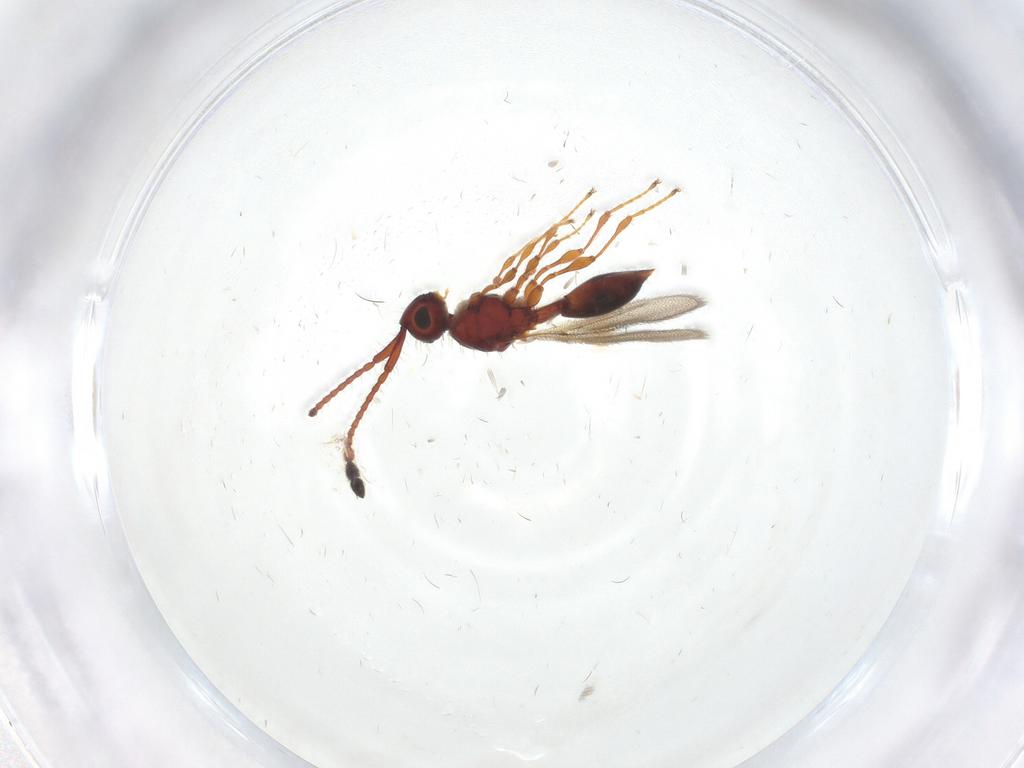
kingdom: Animalia
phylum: Arthropoda
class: Insecta
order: Hymenoptera
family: Diapriidae
